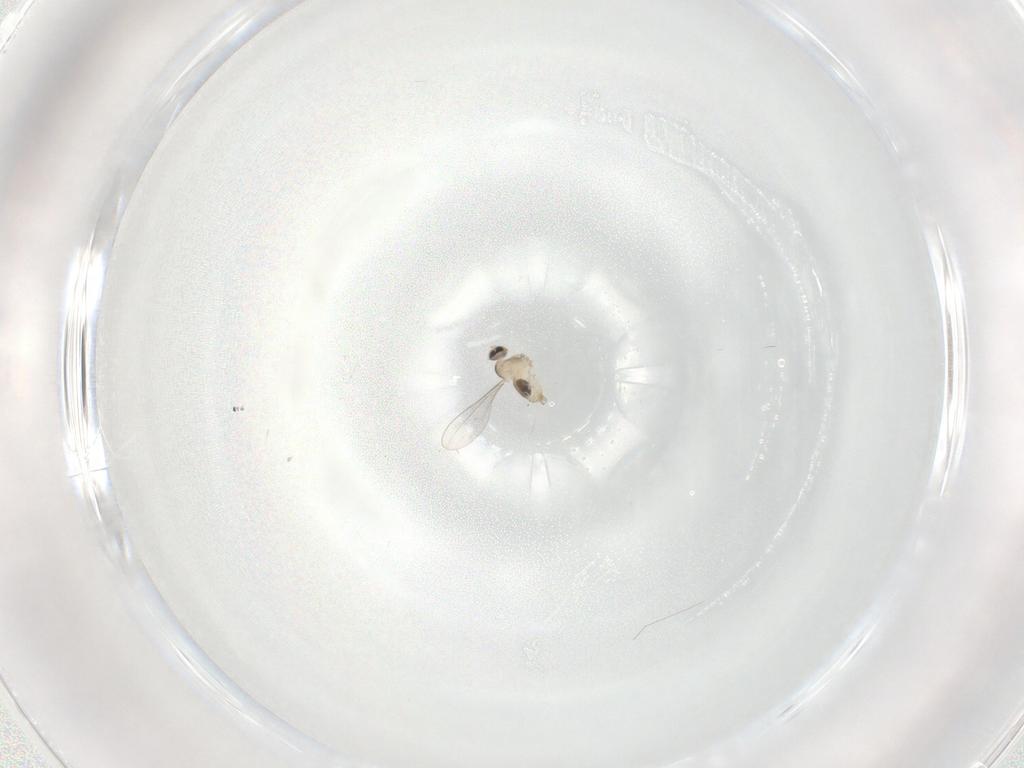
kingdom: Animalia
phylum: Arthropoda
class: Insecta
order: Diptera
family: Cecidomyiidae
